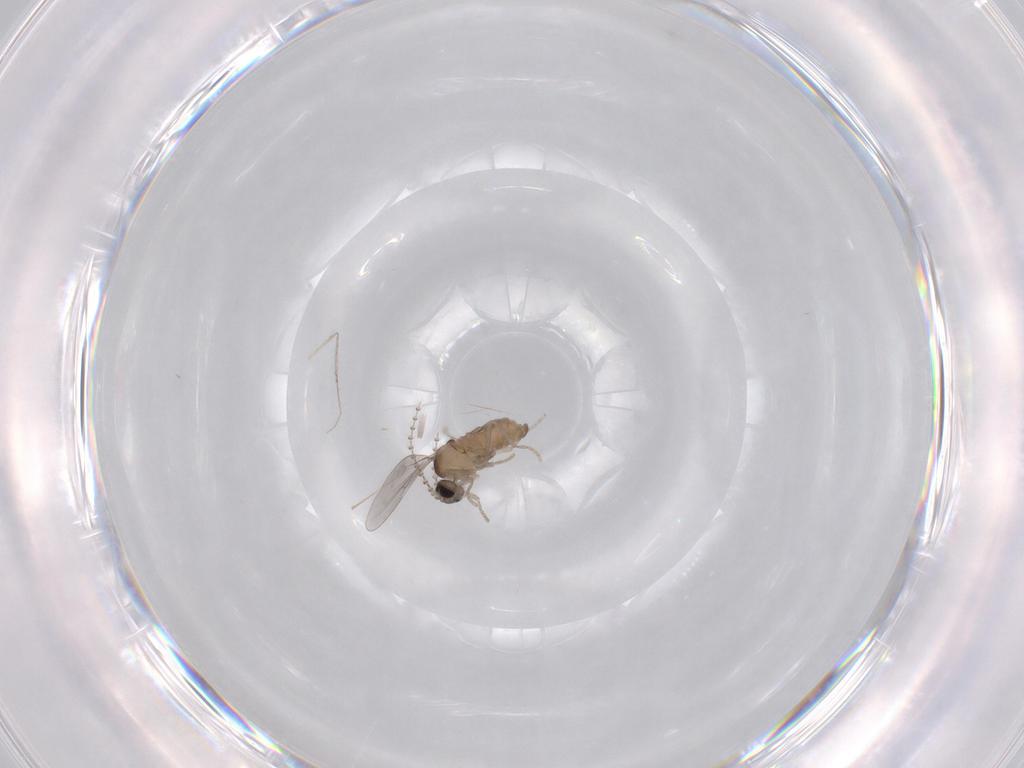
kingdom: Animalia
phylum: Arthropoda
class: Insecta
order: Diptera
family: Cecidomyiidae
